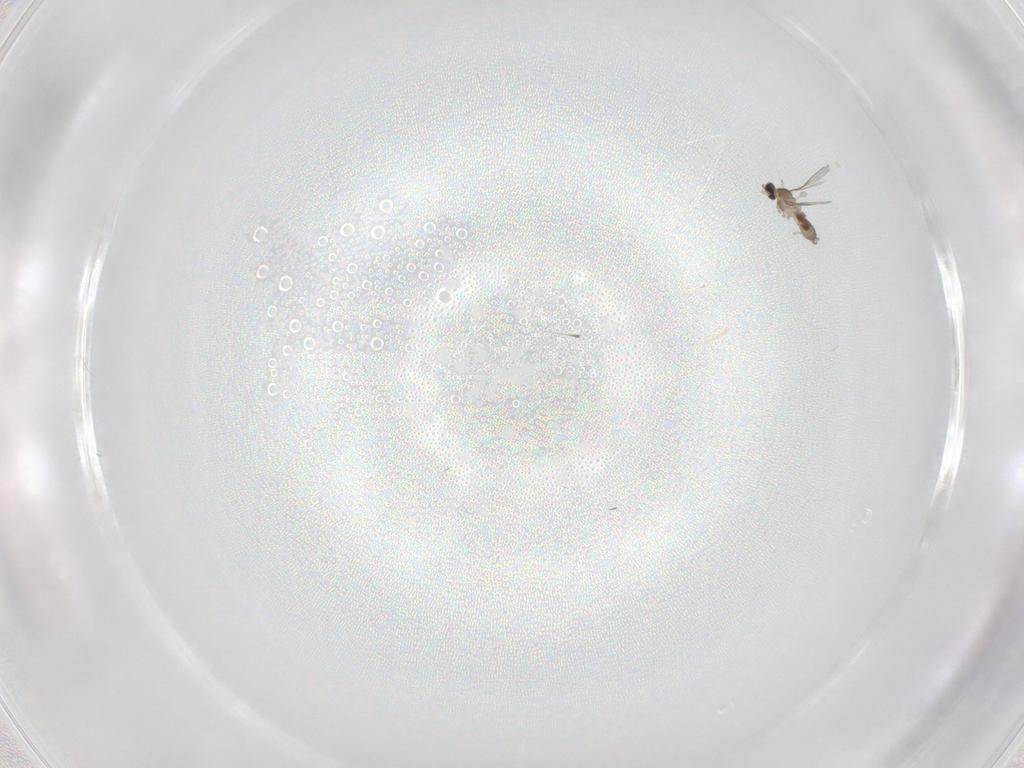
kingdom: Animalia
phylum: Arthropoda
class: Insecta
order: Diptera
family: Cecidomyiidae
